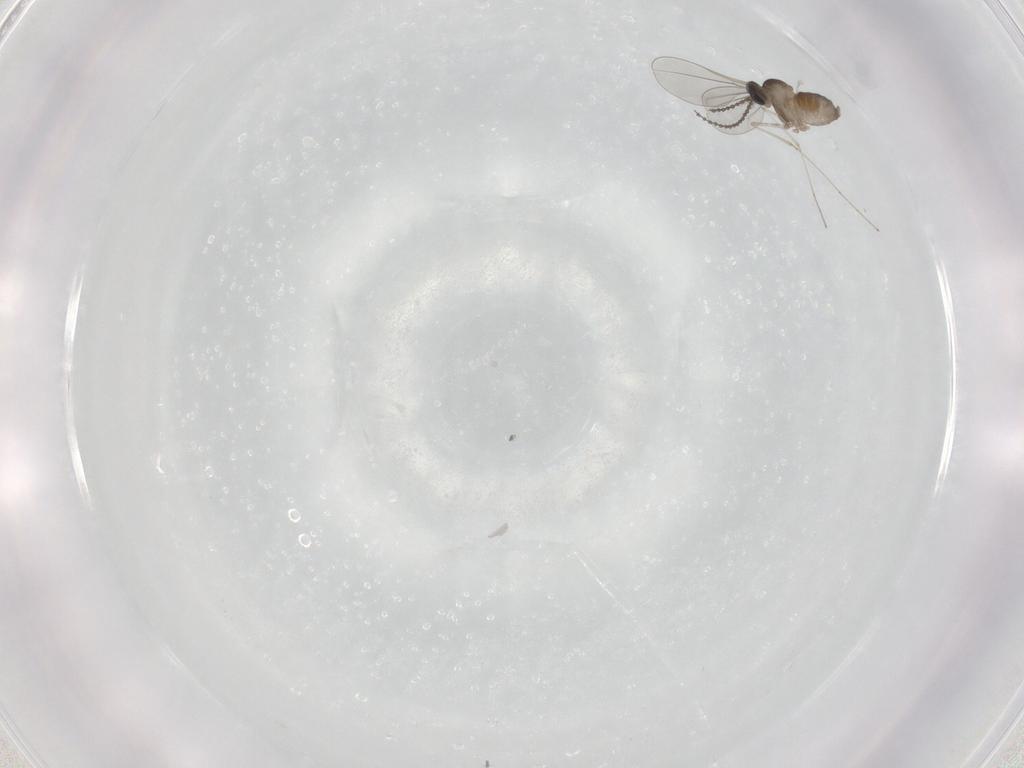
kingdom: Animalia
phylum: Arthropoda
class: Insecta
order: Diptera
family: Cecidomyiidae
